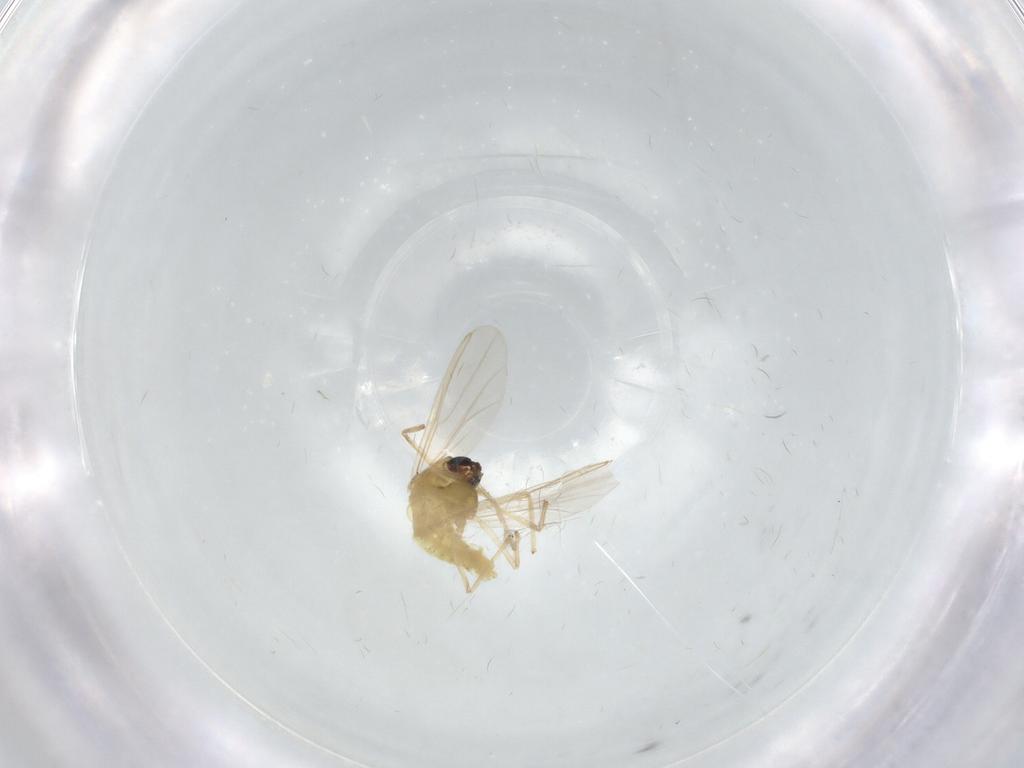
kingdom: Animalia
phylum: Arthropoda
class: Insecta
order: Diptera
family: Chironomidae
